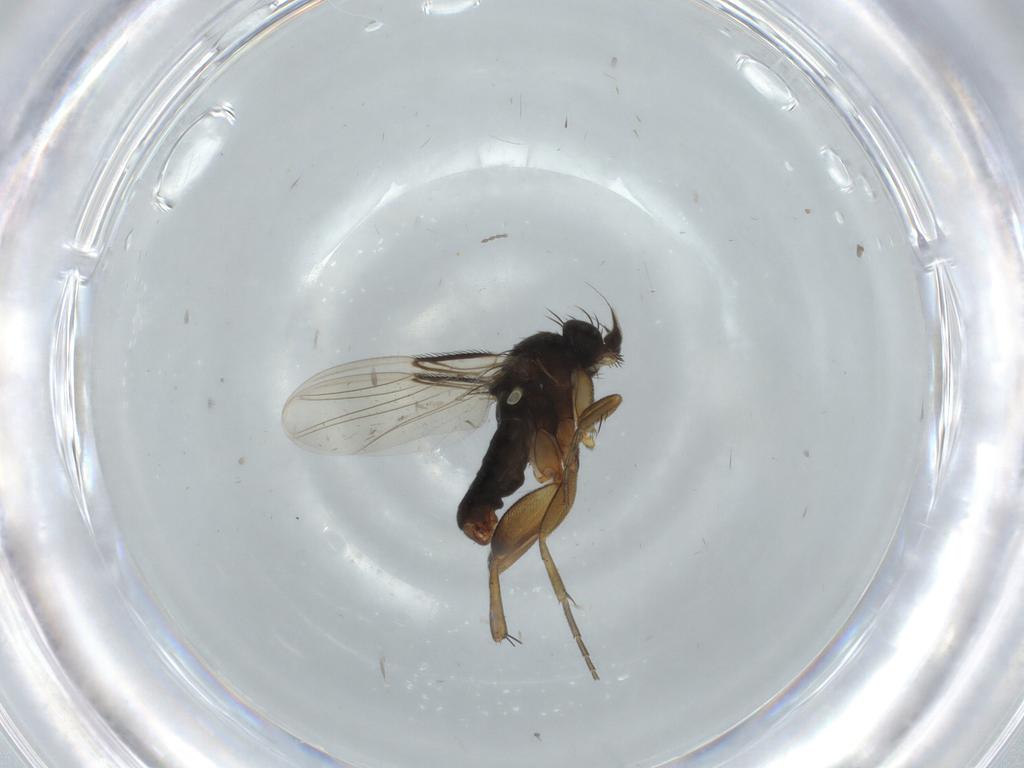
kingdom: Animalia
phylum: Arthropoda
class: Insecta
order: Diptera
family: Phoridae
